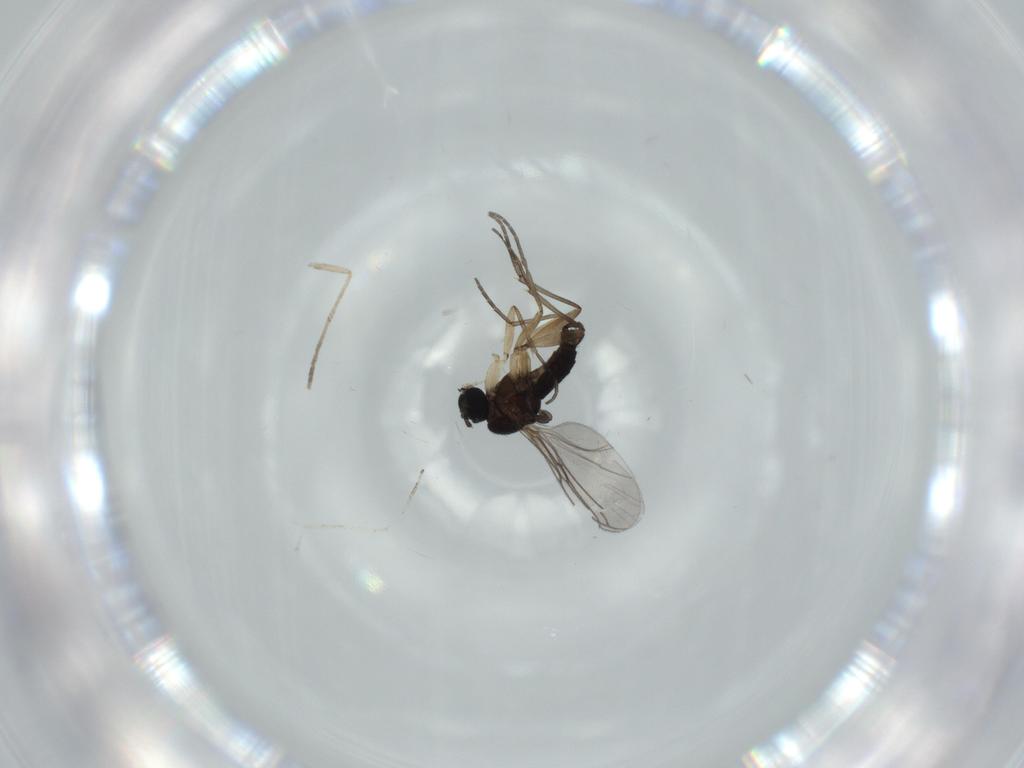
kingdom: Animalia
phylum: Arthropoda
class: Insecta
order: Diptera
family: Sciaridae
